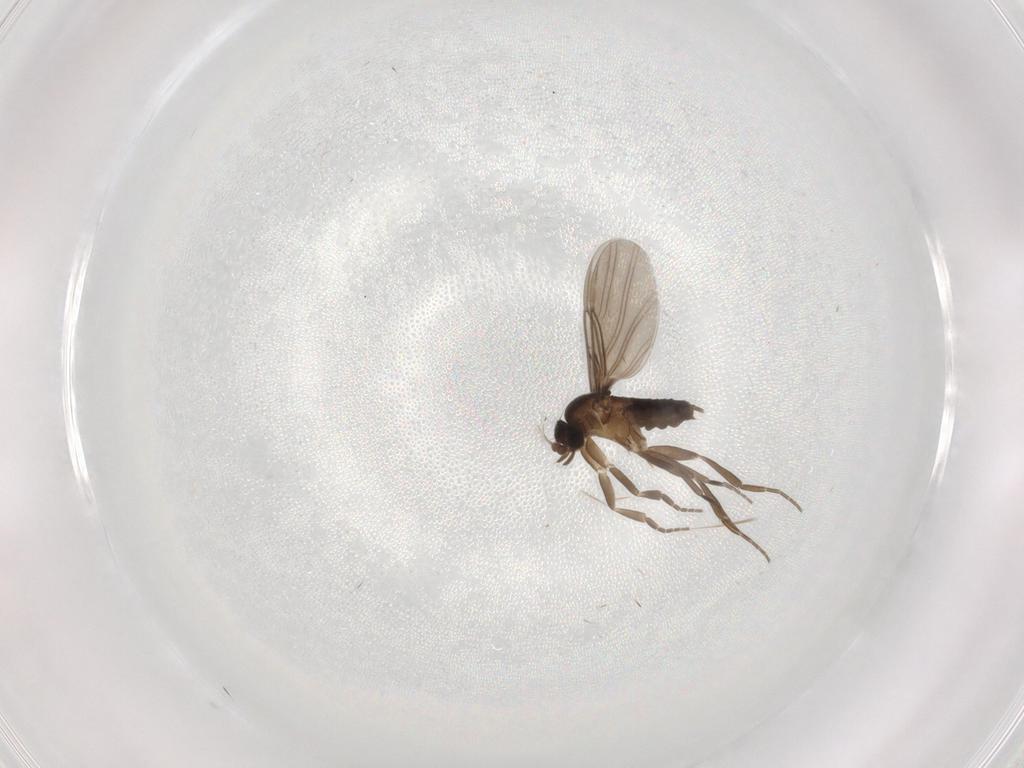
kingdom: Animalia
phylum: Arthropoda
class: Insecta
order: Diptera
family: Phoridae
